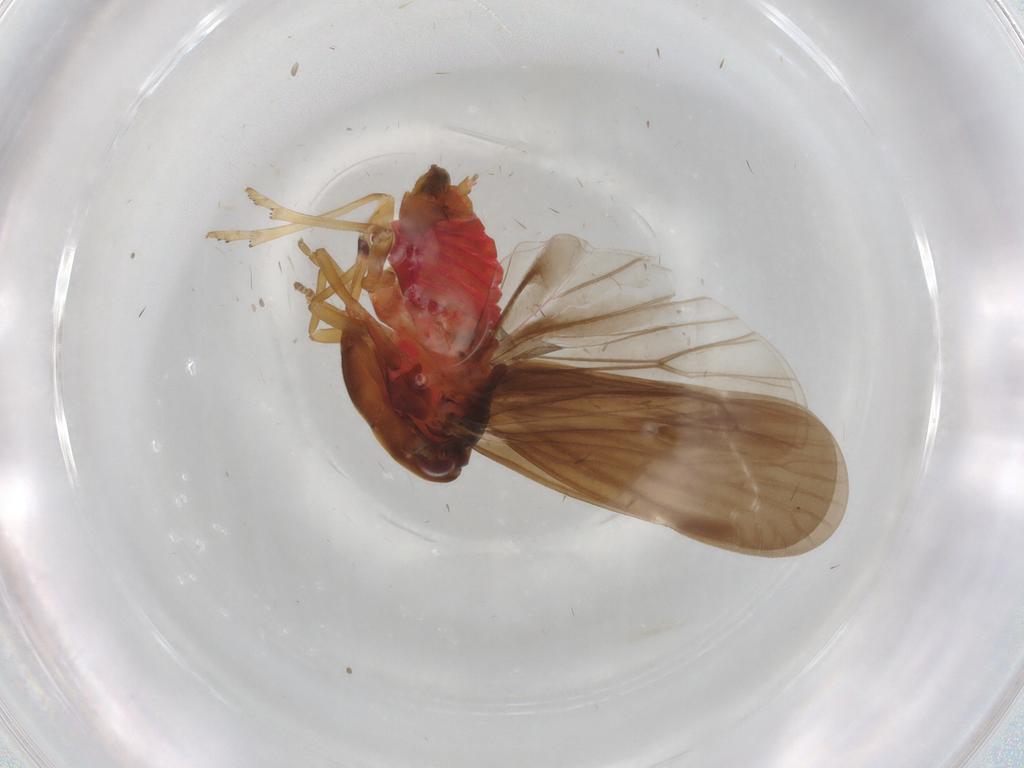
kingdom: Animalia
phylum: Arthropoda
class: Insecta
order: Hemiptera
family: Derbidae
